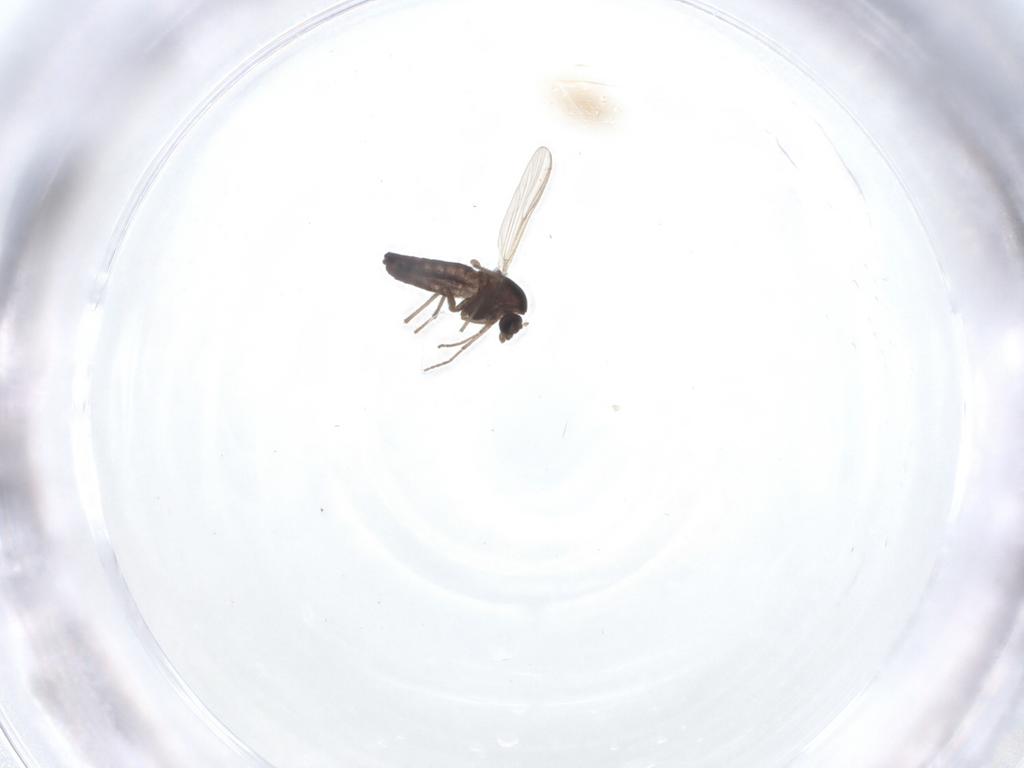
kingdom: Animalia
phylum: Arthropoda
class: Insecta
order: Diptera
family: Chironomidae
